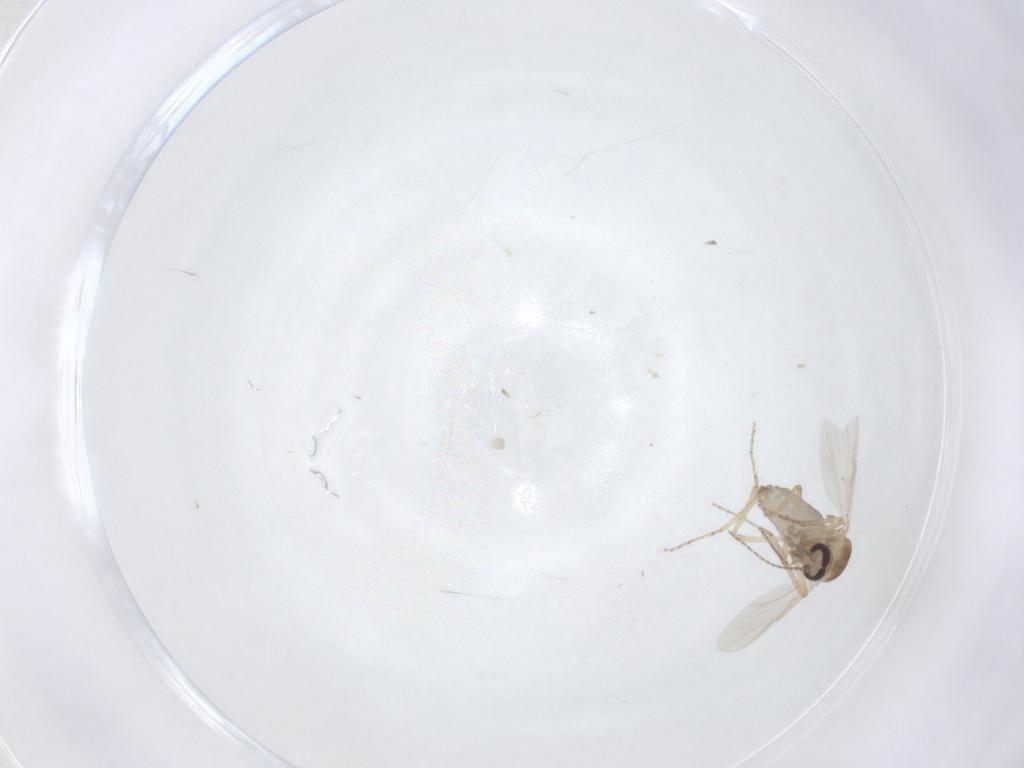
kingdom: Animalia
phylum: Arthropoda
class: Insecta
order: Diptera
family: Ceratopogonidae
